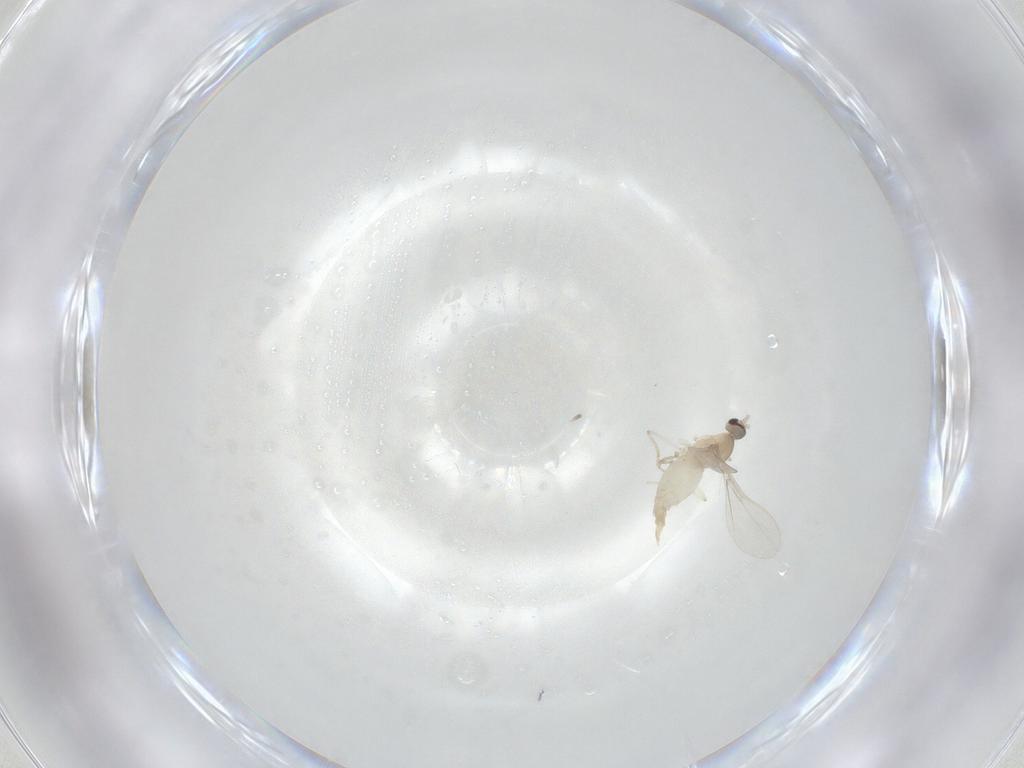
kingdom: Animalia
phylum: Arthropoda
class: Insecta
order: Diptera
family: Cecidomyiidae
